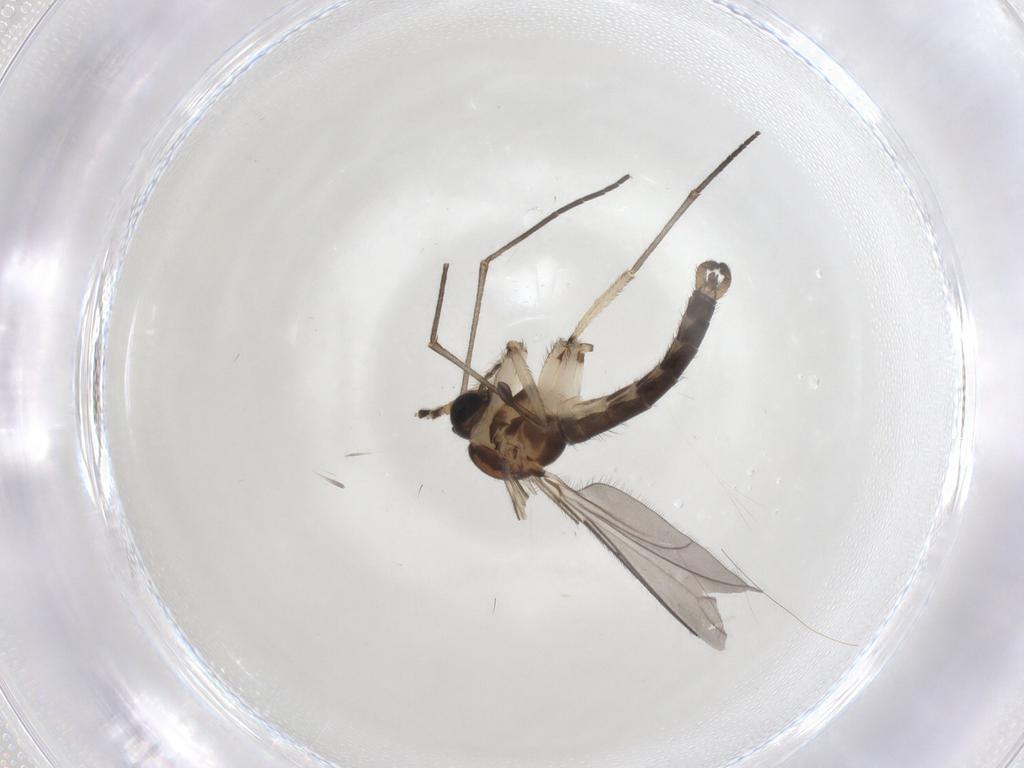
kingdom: Animalia
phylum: Arthropoda
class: Insecta
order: Diptera
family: Sciaridae
